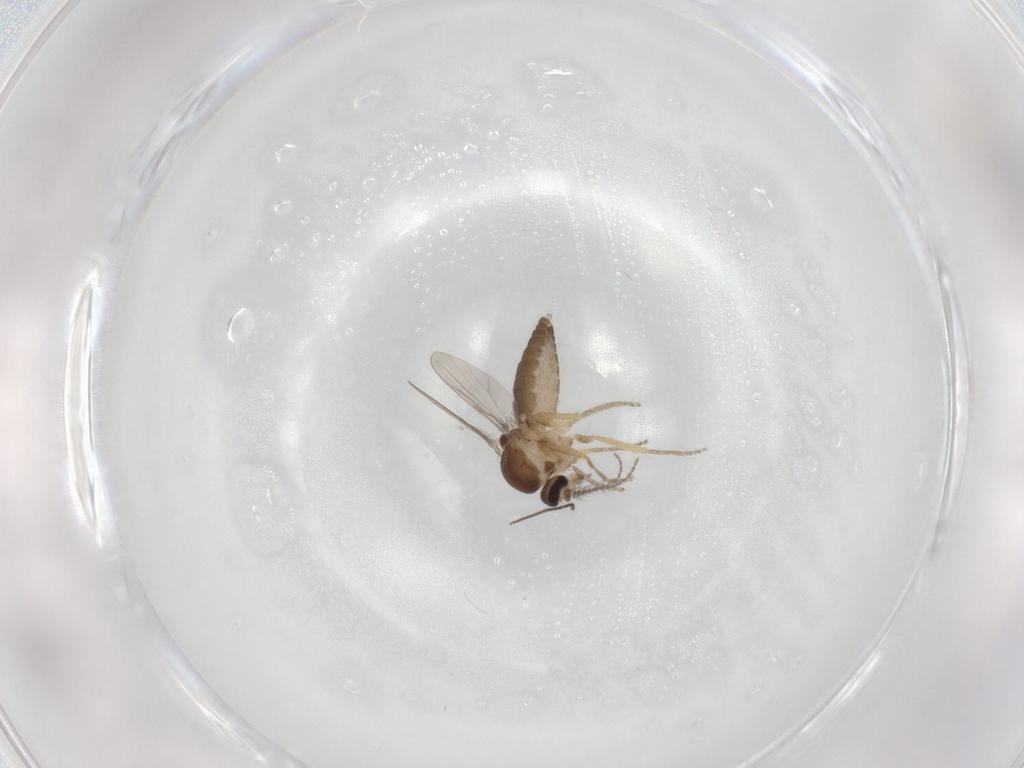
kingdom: Animalia
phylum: Arthropoda
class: Insecta
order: Diptera
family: Ceratopogonidae
